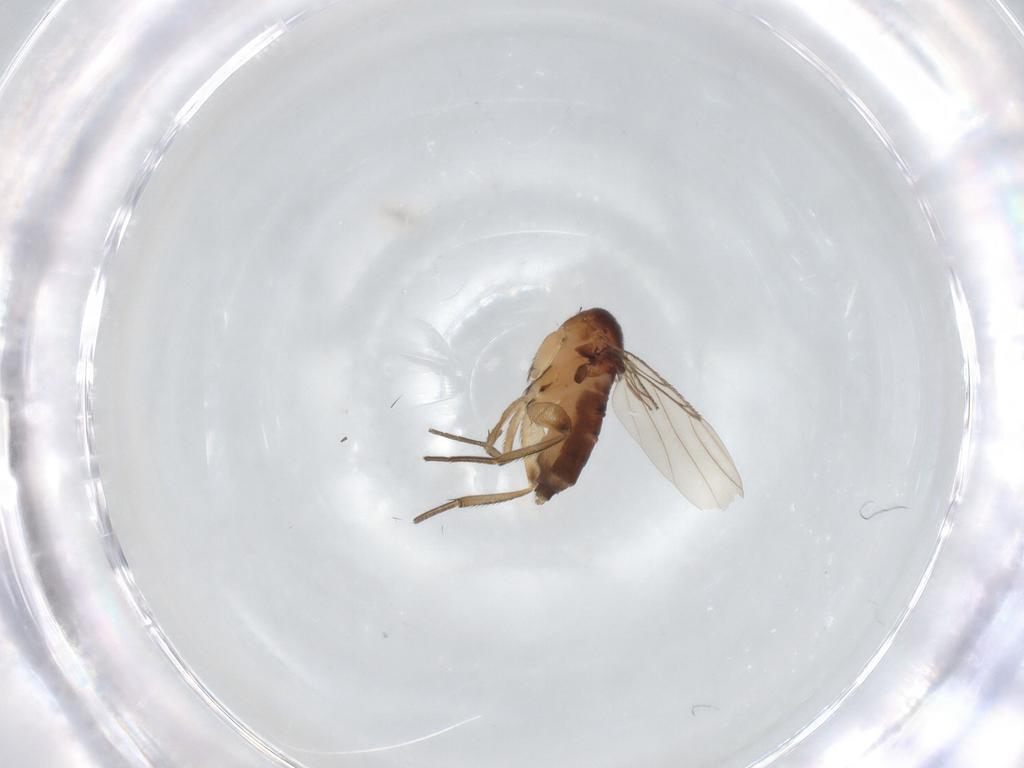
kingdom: Animalia
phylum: Arthropoda
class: Insecta
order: Diptera
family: Phoridae
